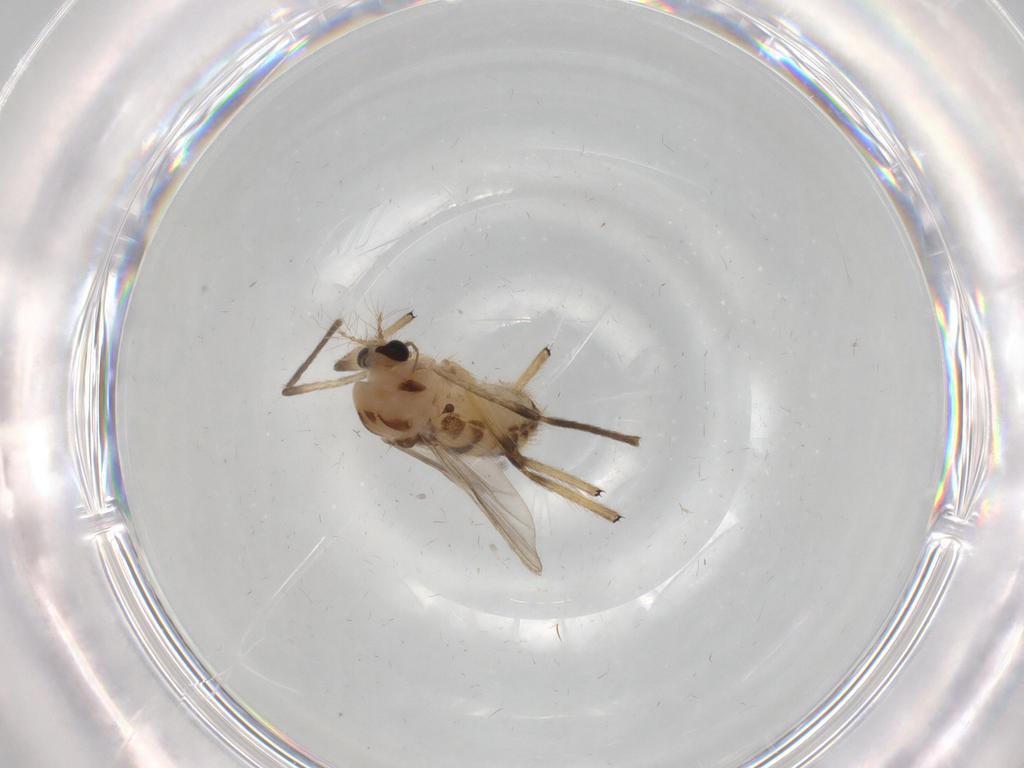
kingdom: Animalia
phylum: Arthropoda
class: Insecta
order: Diptera
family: Chironomidae
